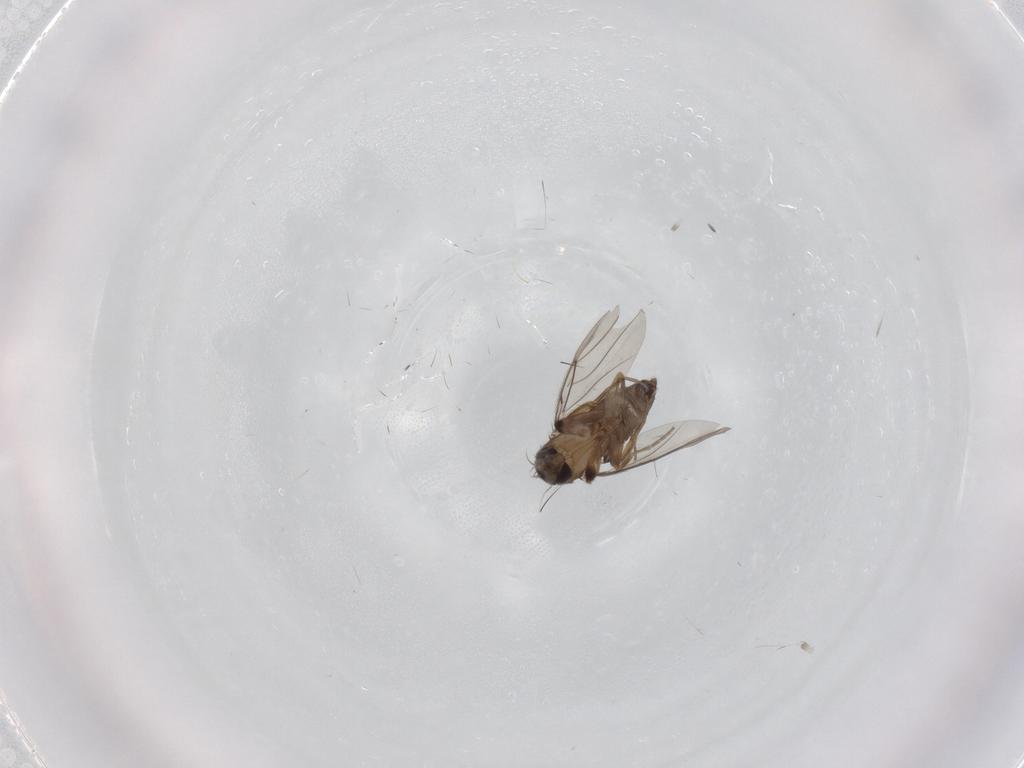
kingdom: Animalia
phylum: Arthropoda
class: Insecta
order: Diptera
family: Phoridae
